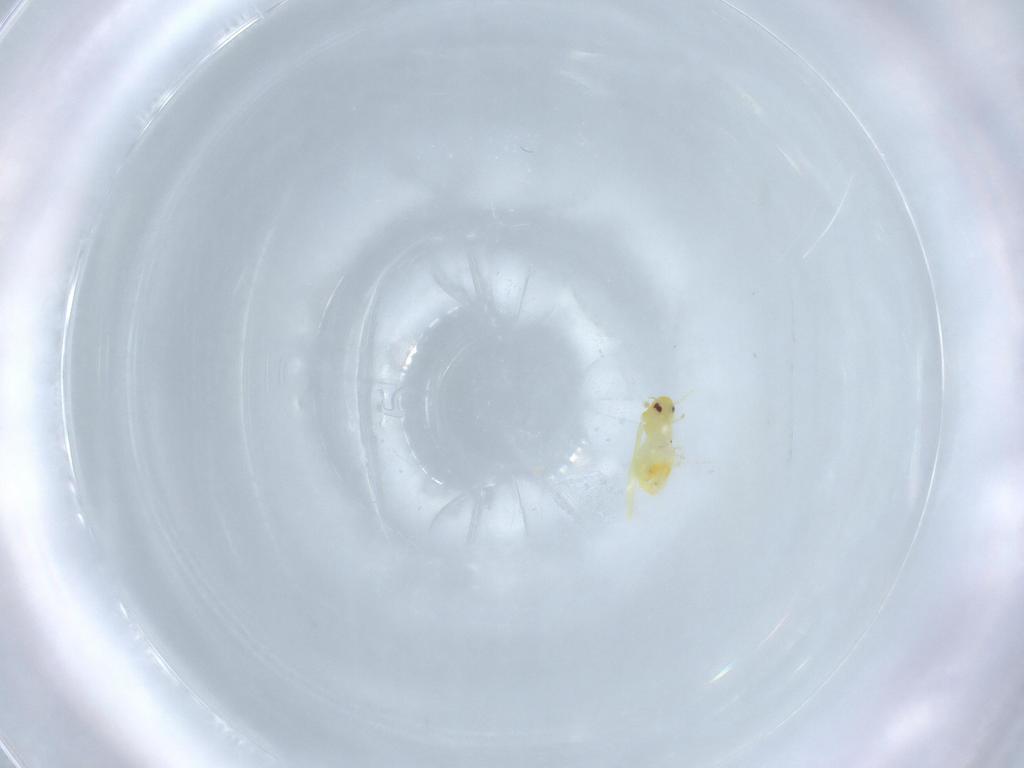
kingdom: Animalia
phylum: Arthropoda
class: Insecta
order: Hemiptera
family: Aleyrodidae
